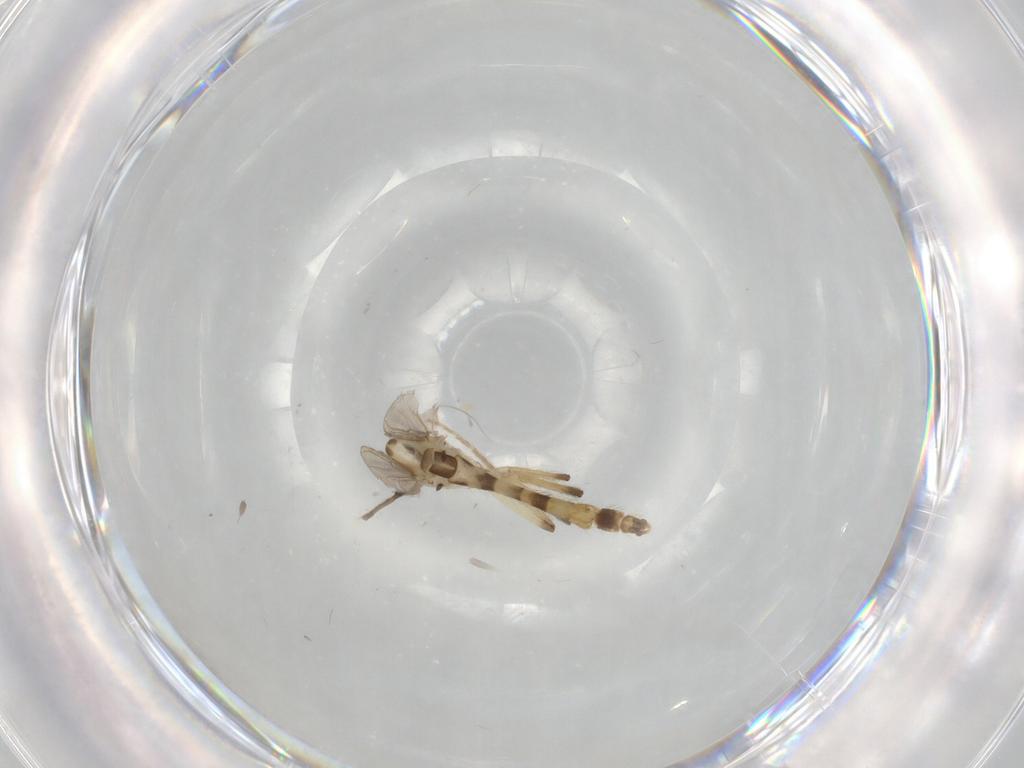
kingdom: Animalia
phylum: Arthropoda
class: Insecta
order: Diptera
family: Chironomidae
